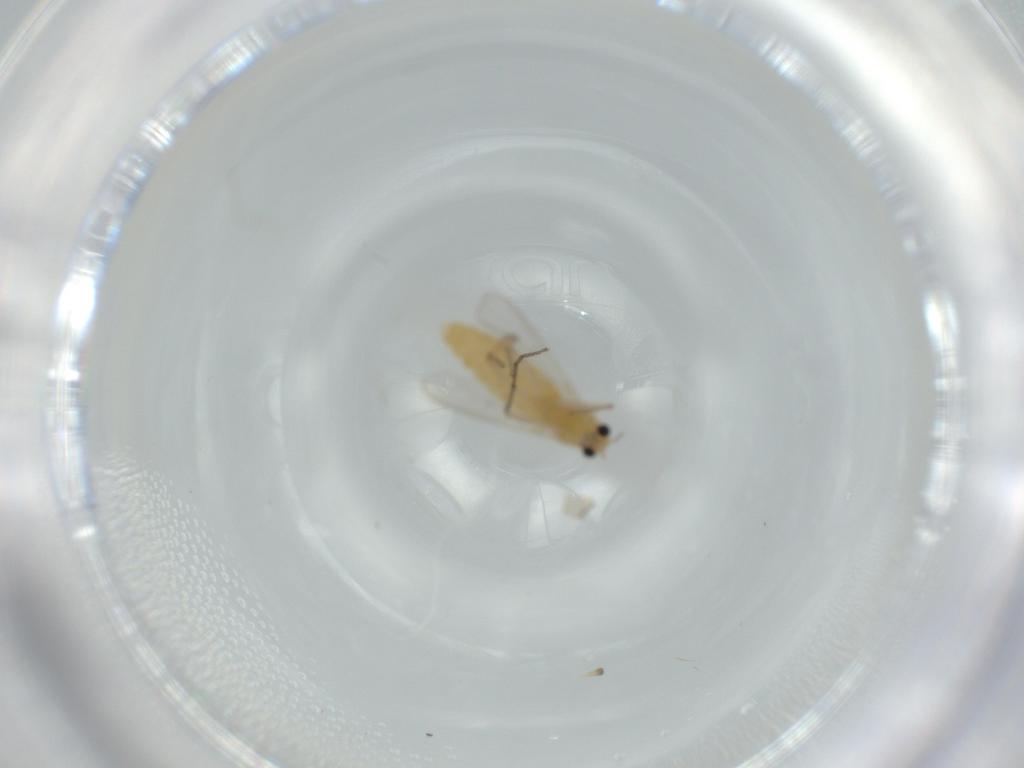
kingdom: Animalia
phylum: Arthropoda
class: Insecta
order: Diptera
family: Chironomidae
